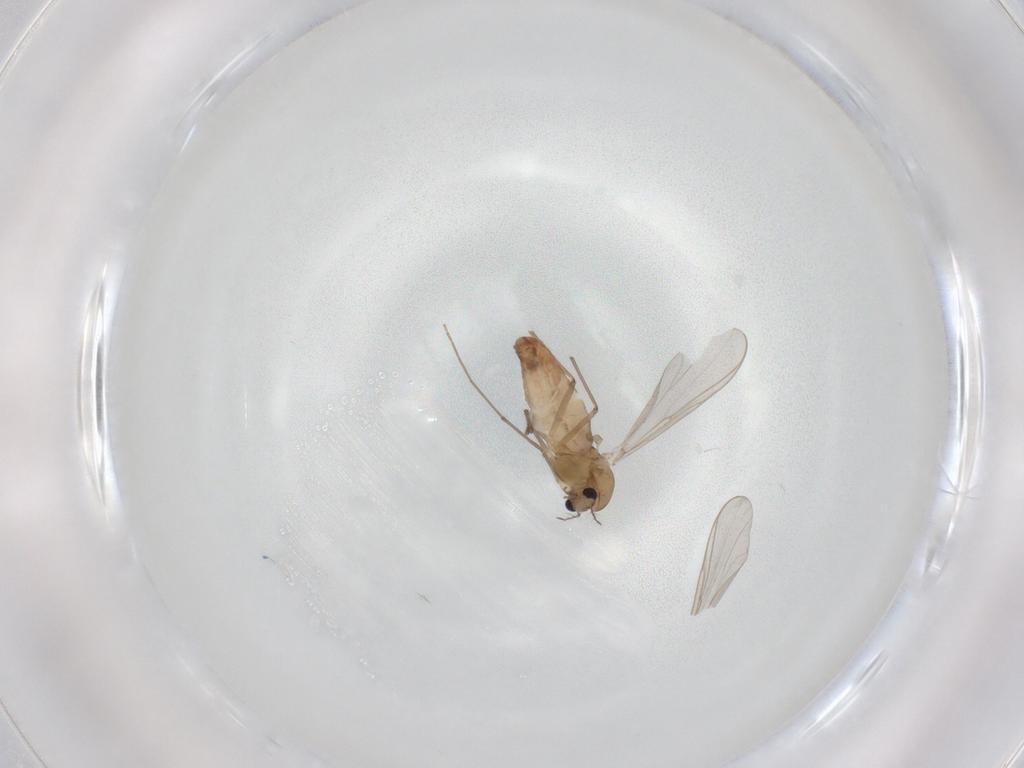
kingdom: Animalia
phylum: Arthropoda
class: Insecta
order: Diptera
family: Chironomidae
